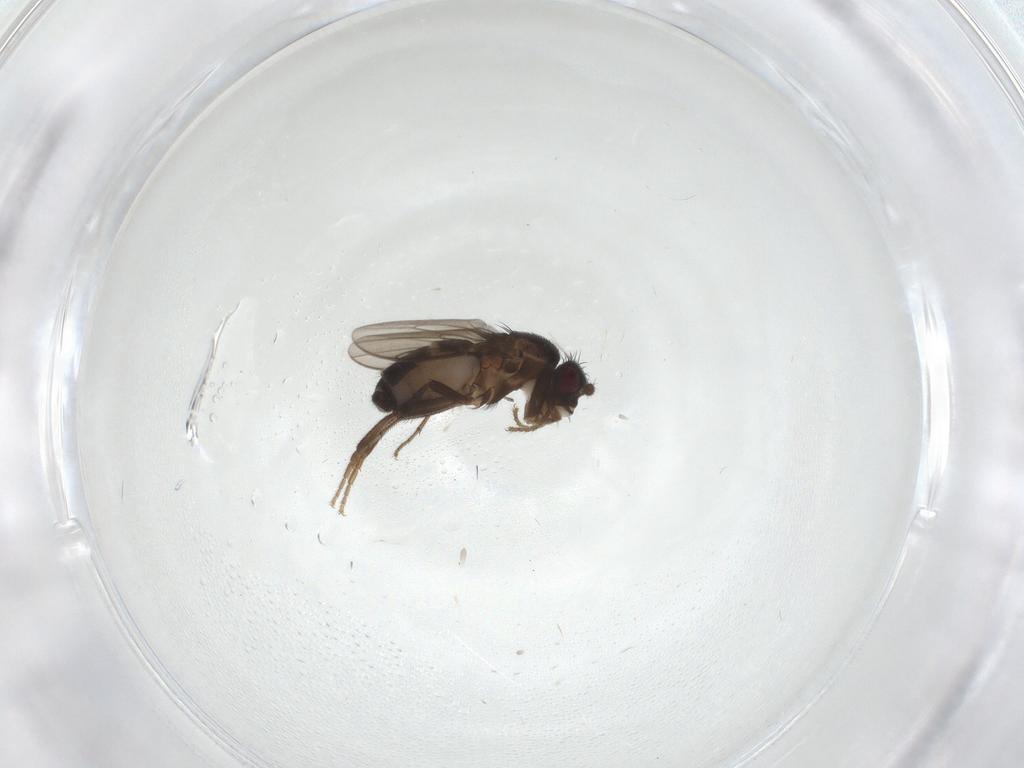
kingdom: Animalia
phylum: Arthropoda
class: Insecta
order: Diptera
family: Sphaeroceridae
